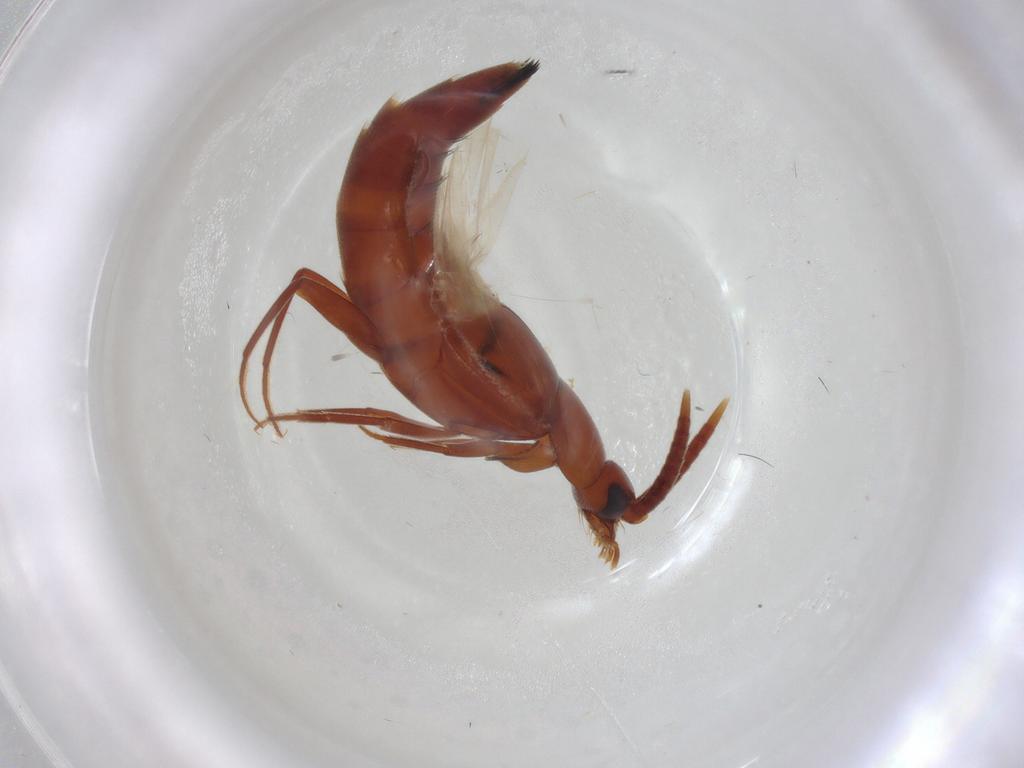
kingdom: Animalia
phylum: Arthropoda
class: Insecta
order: Coleoptera
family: Staphylinidae
